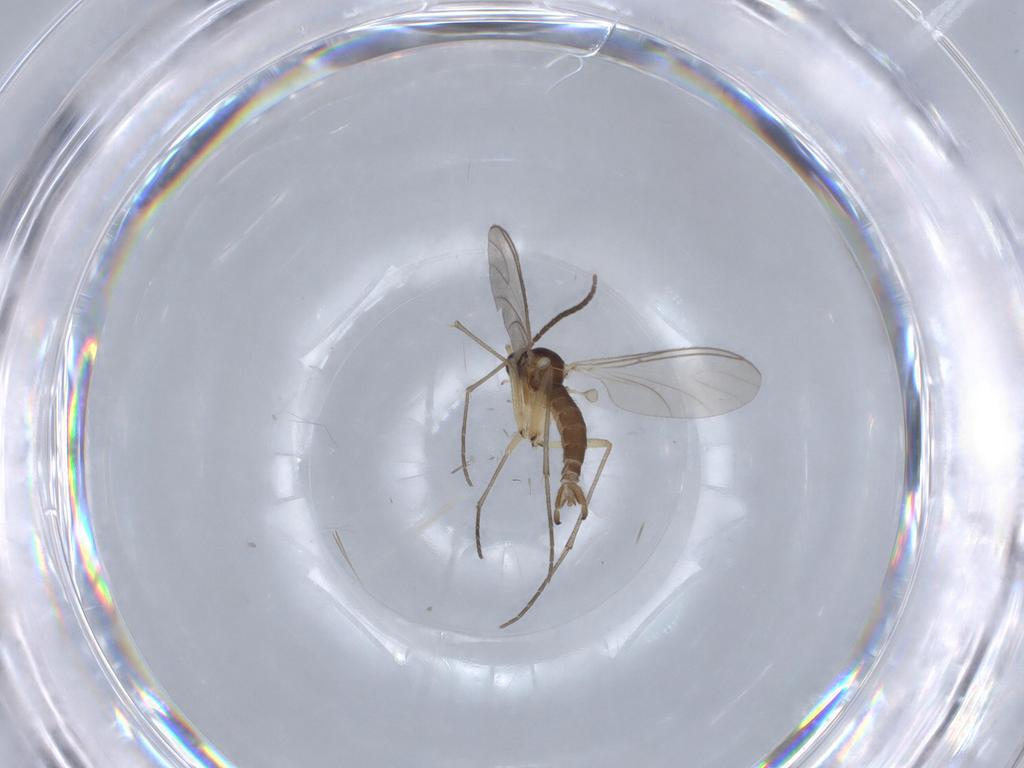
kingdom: Animalia
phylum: Arthropoda
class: Insecta
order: Diptera
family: Sciaridae
